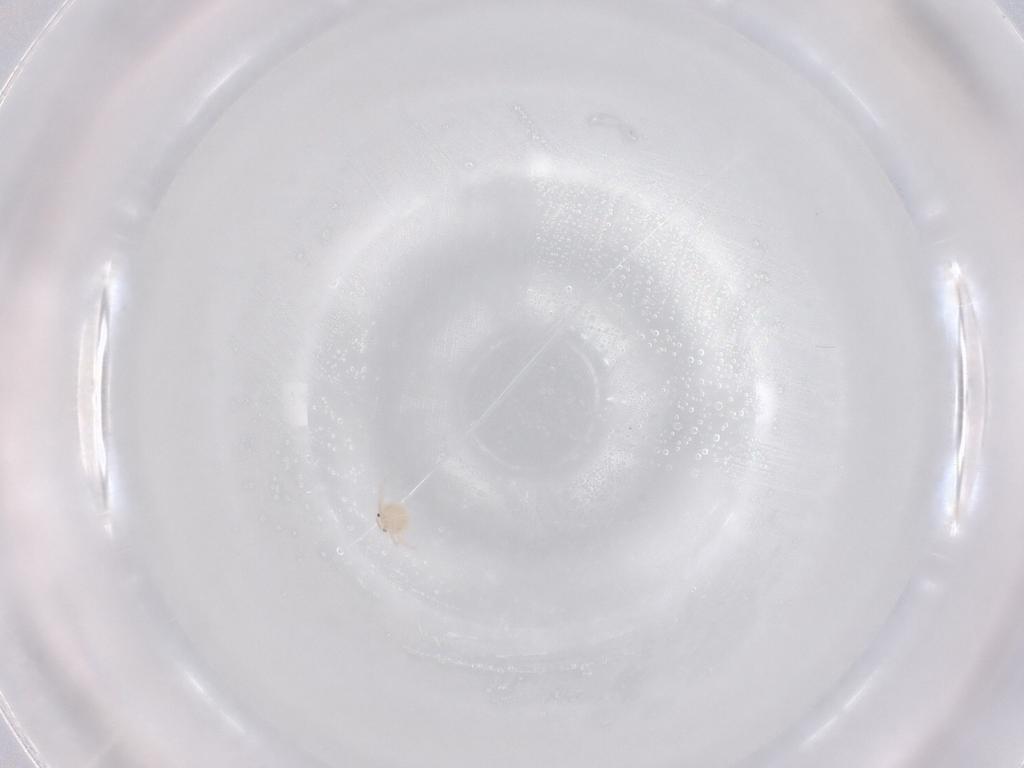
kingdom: Animalia
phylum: Arthropoda
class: Arachnida
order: Trombidiformes
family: Lebertiidae
